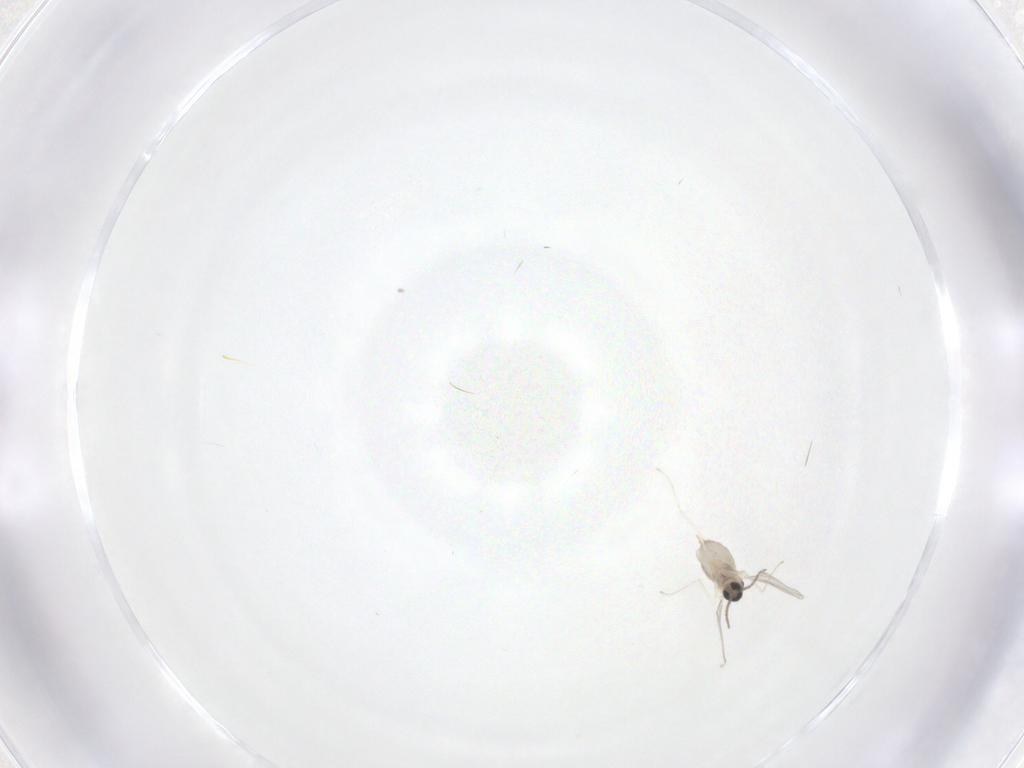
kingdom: Animalia
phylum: Arthropoda
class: Insecta
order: Diptera
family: Cecidomyiidae
